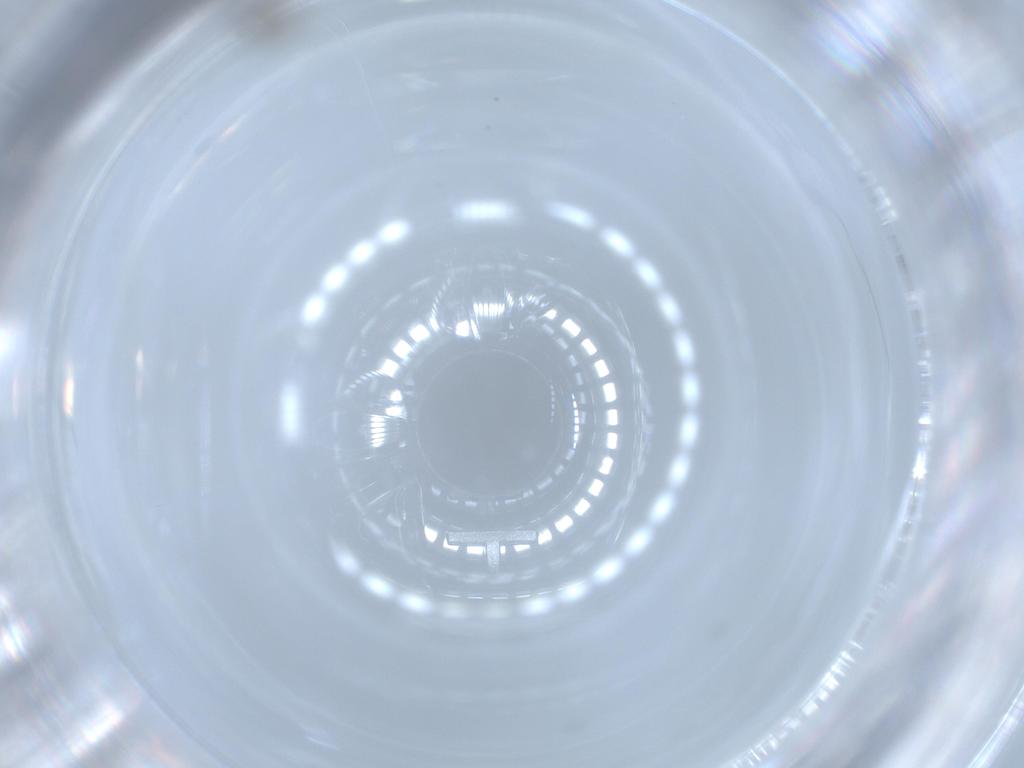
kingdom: Animalia
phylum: Arthropoda
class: Insecta
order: Diptera
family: Cecidomyiidae
